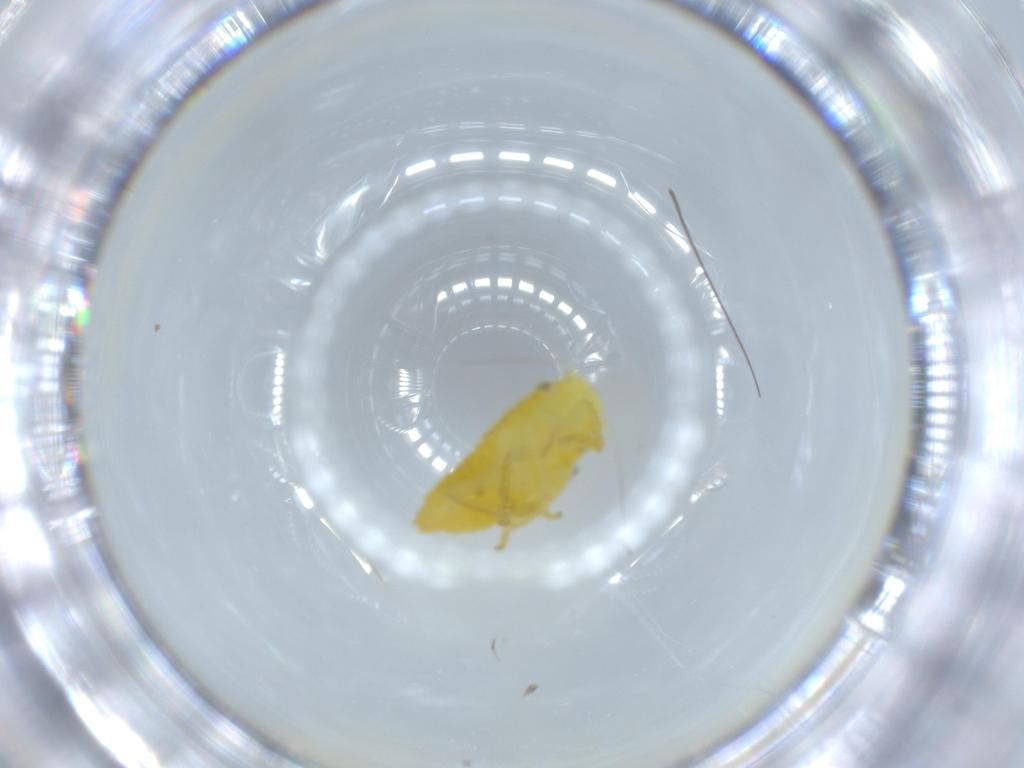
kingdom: Animalia
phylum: Arthropoda
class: Insecta
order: Hemiptera
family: Cicadellidae
